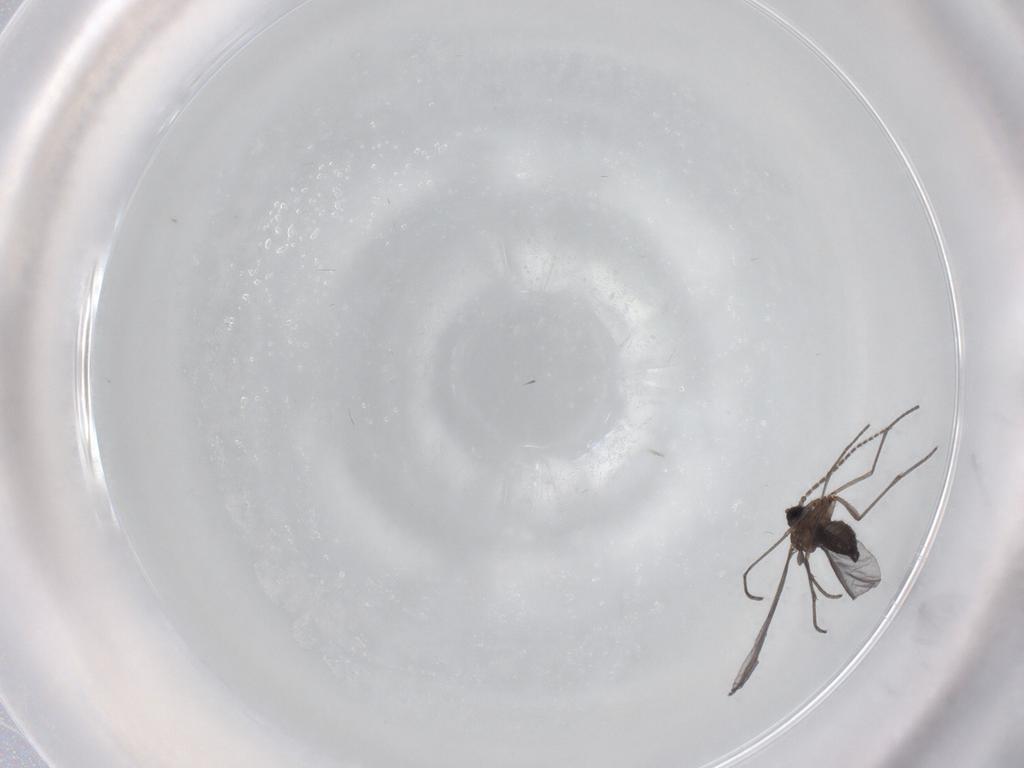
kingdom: Animalia
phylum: Arthropoda
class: Insecta
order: Diptera
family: Sciaridae
